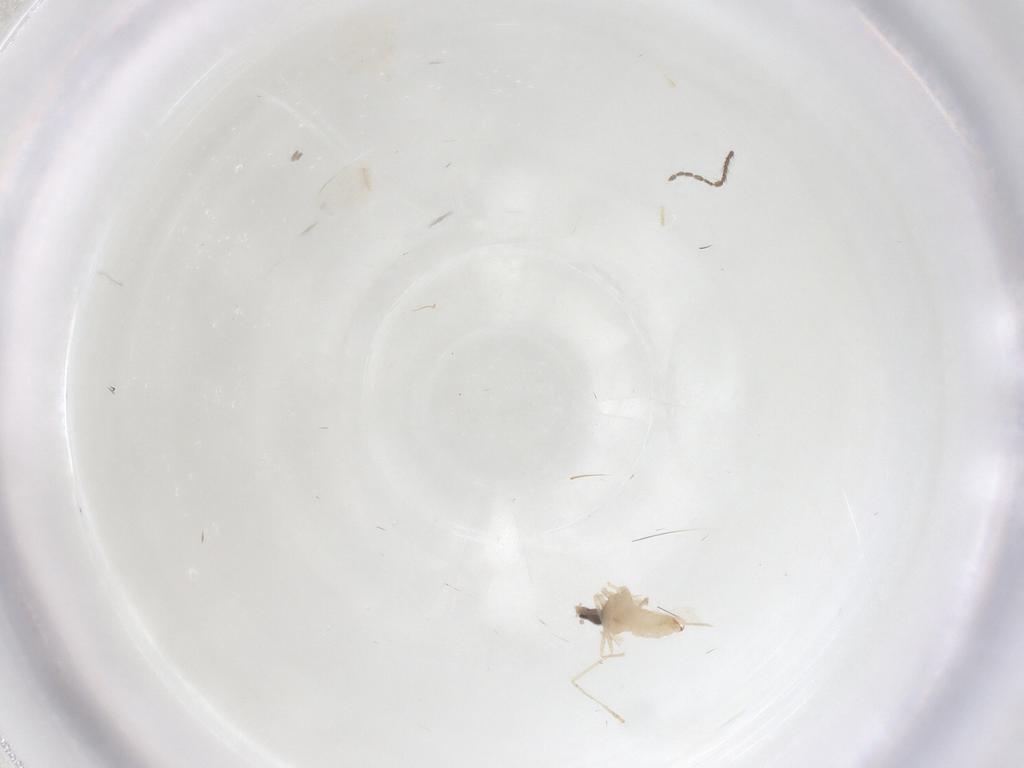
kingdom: Animalia
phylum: Arthropoda
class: Insecta
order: Diptera
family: Cecidomyiidae
